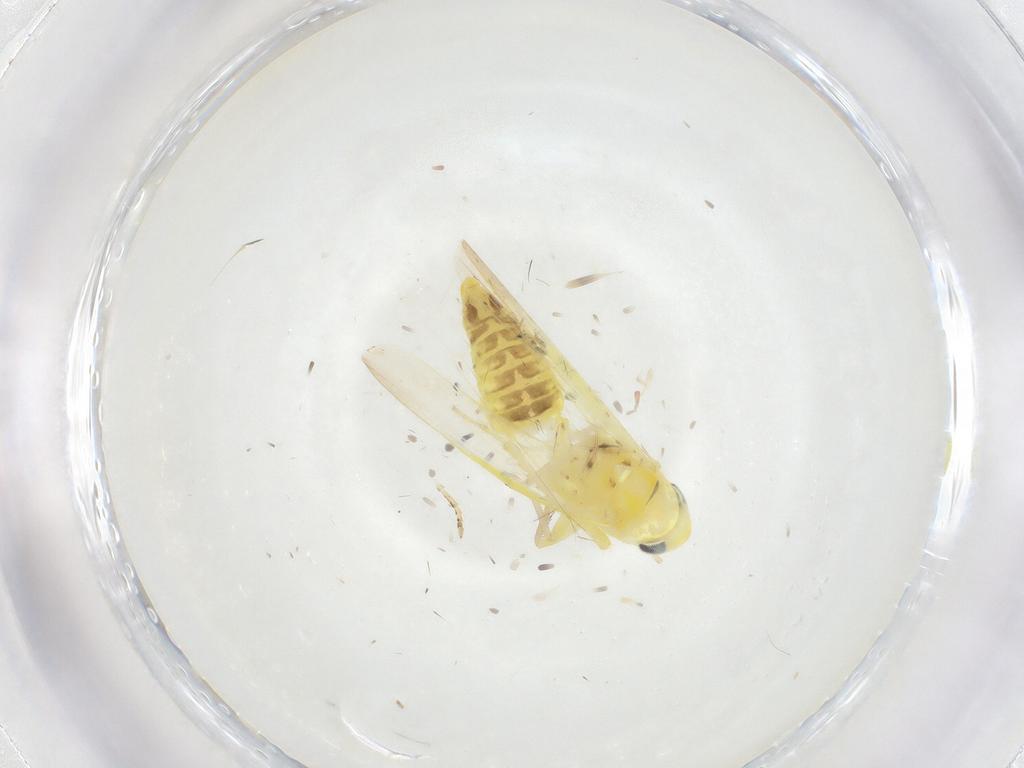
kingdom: Animalia
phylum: Arthropoda
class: Insecta
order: Hemiptera
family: Cicadellidae
